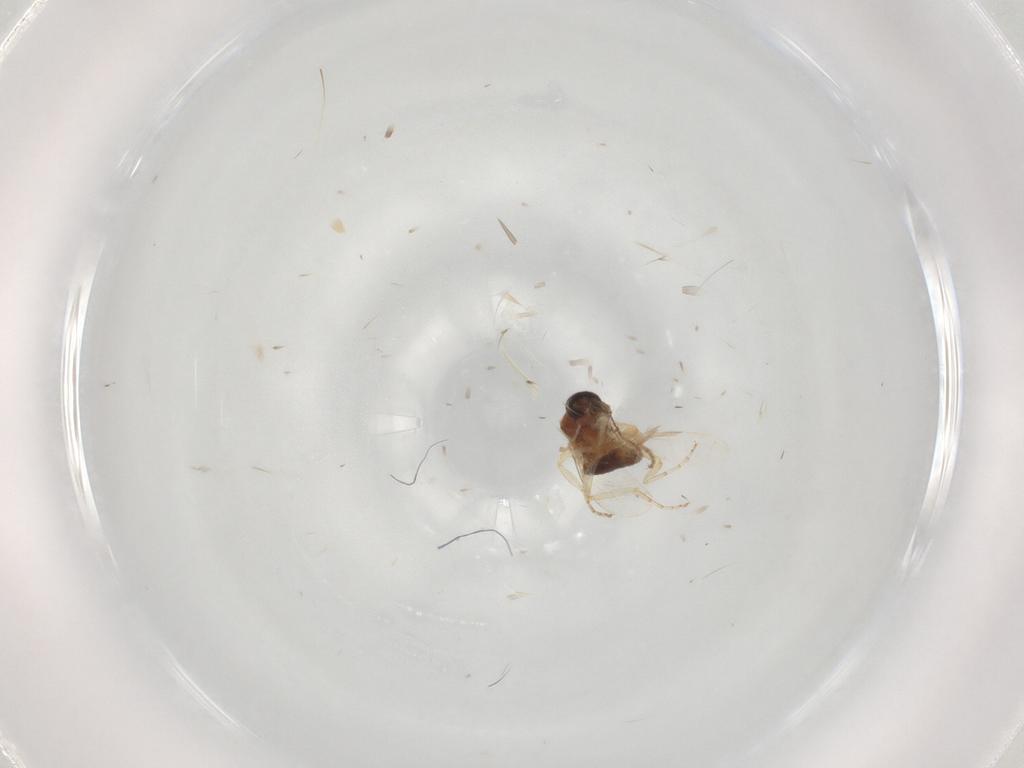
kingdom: Animalia
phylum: Arthropoda
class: Insecta
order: Diptera
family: Ceratopogonidae
